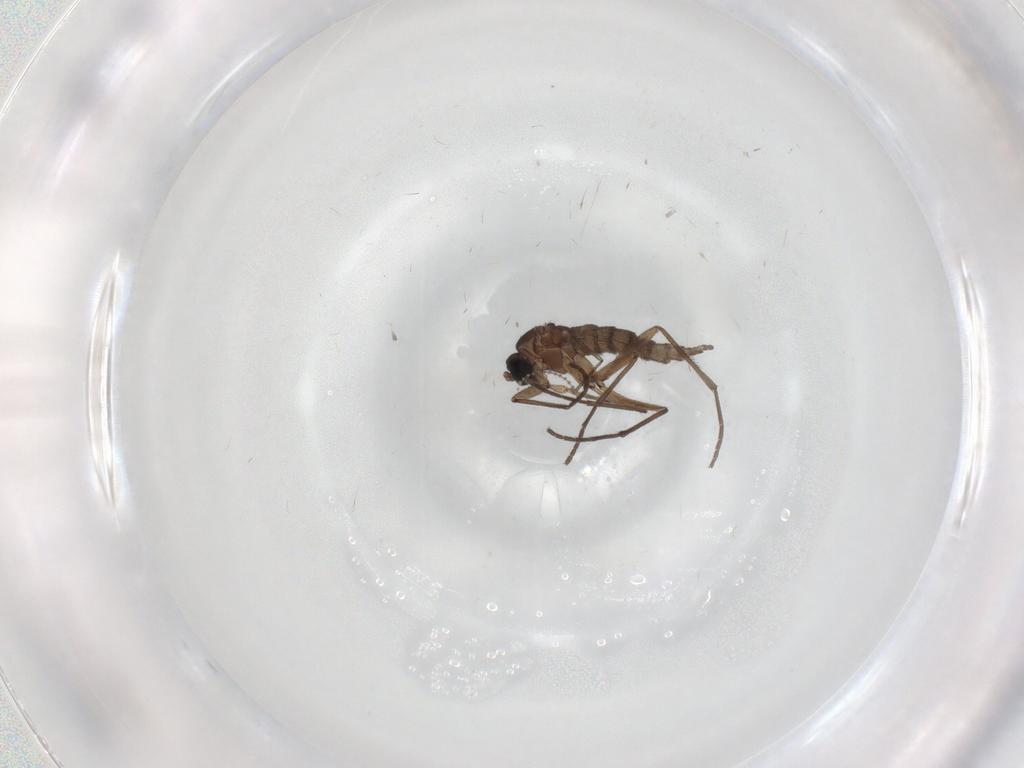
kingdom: Animalia
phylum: Arthropoda
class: Insecta
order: Diptera
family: Sciaridae
